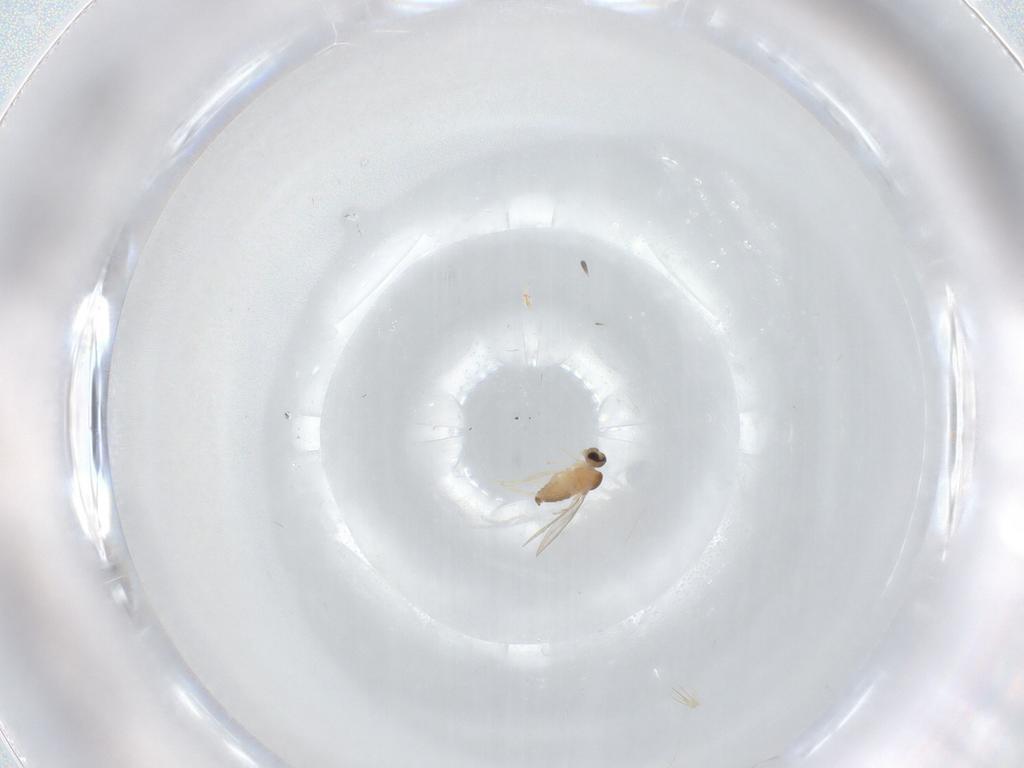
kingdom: Animalia
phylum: Arthropoda
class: Insecta
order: Diptera
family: Cecidomyiidae
